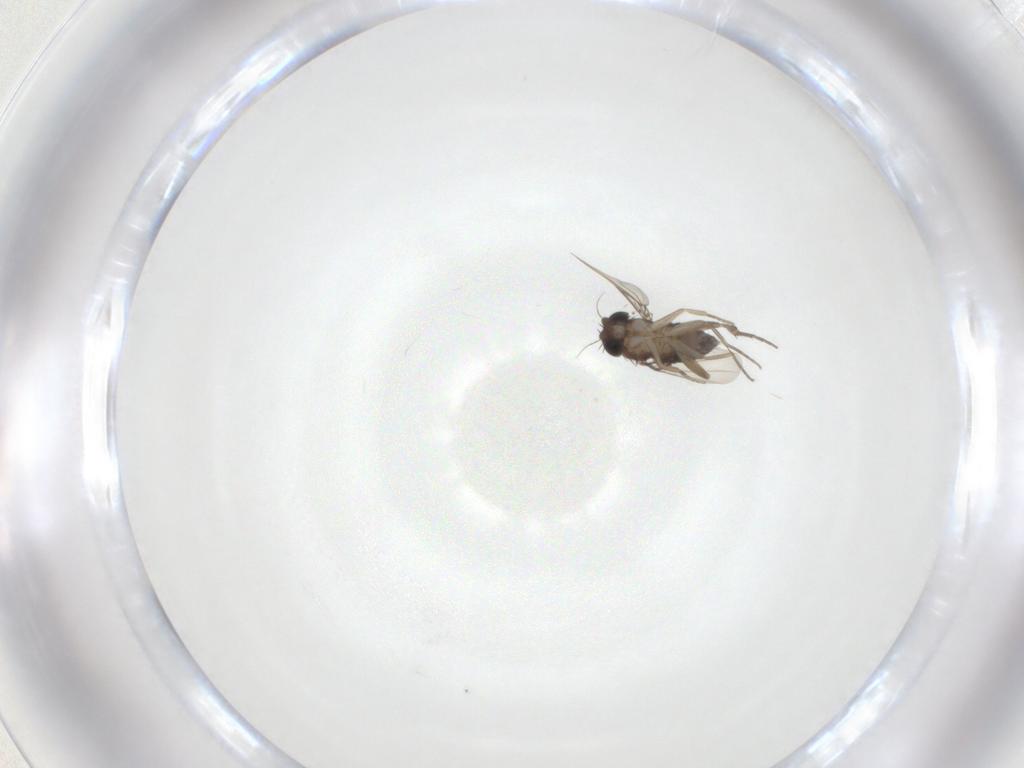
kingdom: Animalia
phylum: Arthropoda
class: Insecta
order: Diptera
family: Phoridae
